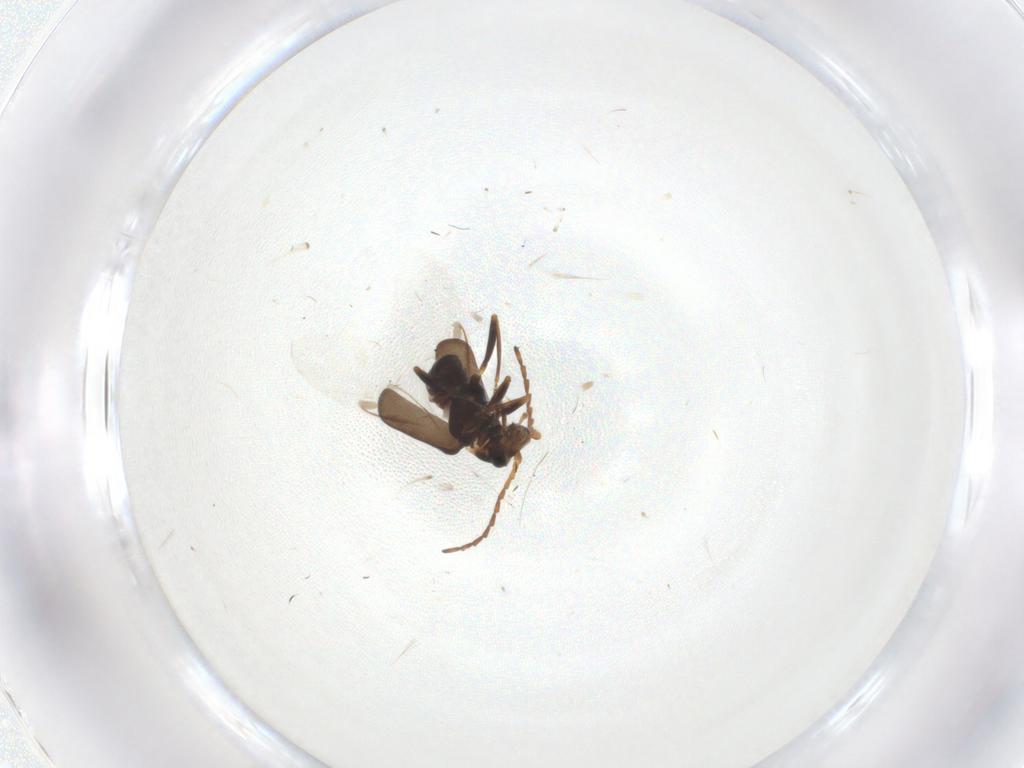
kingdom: Animalia
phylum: Arthropoda
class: Insecta
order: Coleoptera
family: Melyridae
